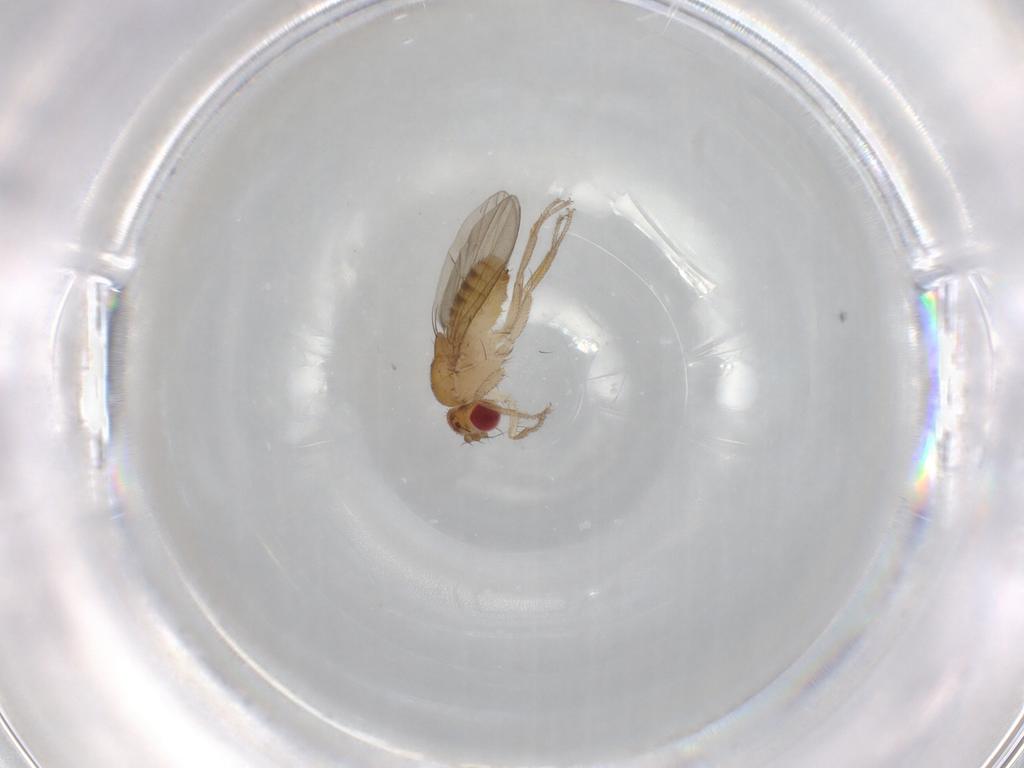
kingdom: Animalia
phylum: Arthropoda
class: Insecta
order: Diptera
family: Drosophilidae
